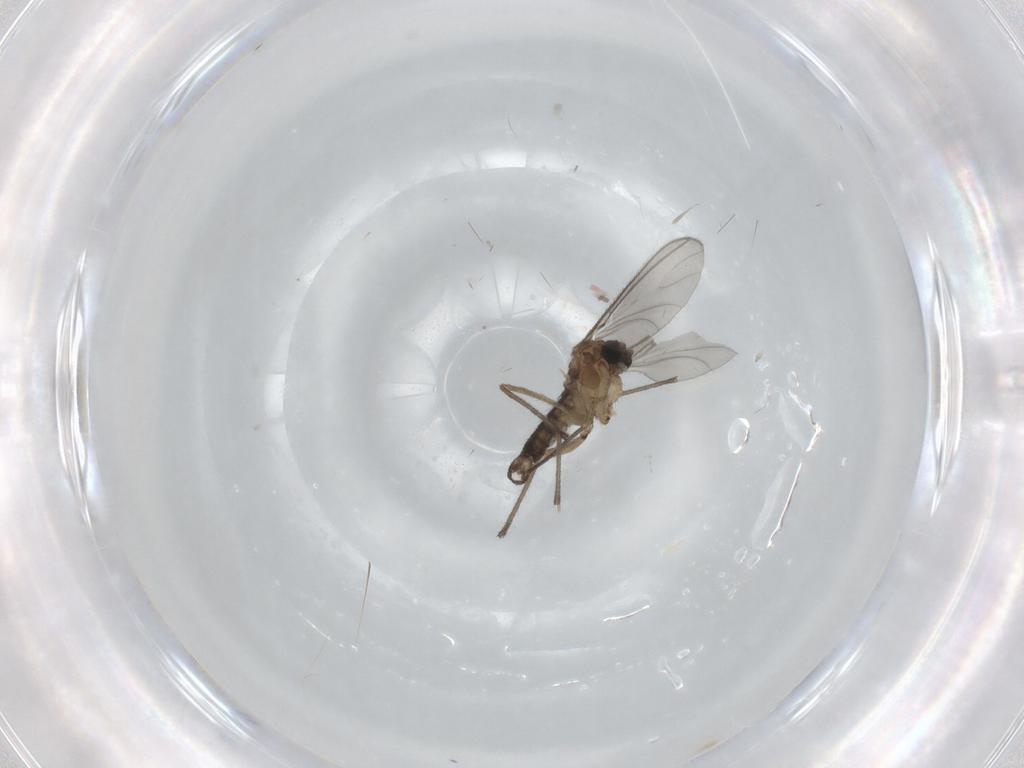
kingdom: Animalia
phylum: Arthropoda
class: Insecta
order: Diptera
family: Sciaridae
